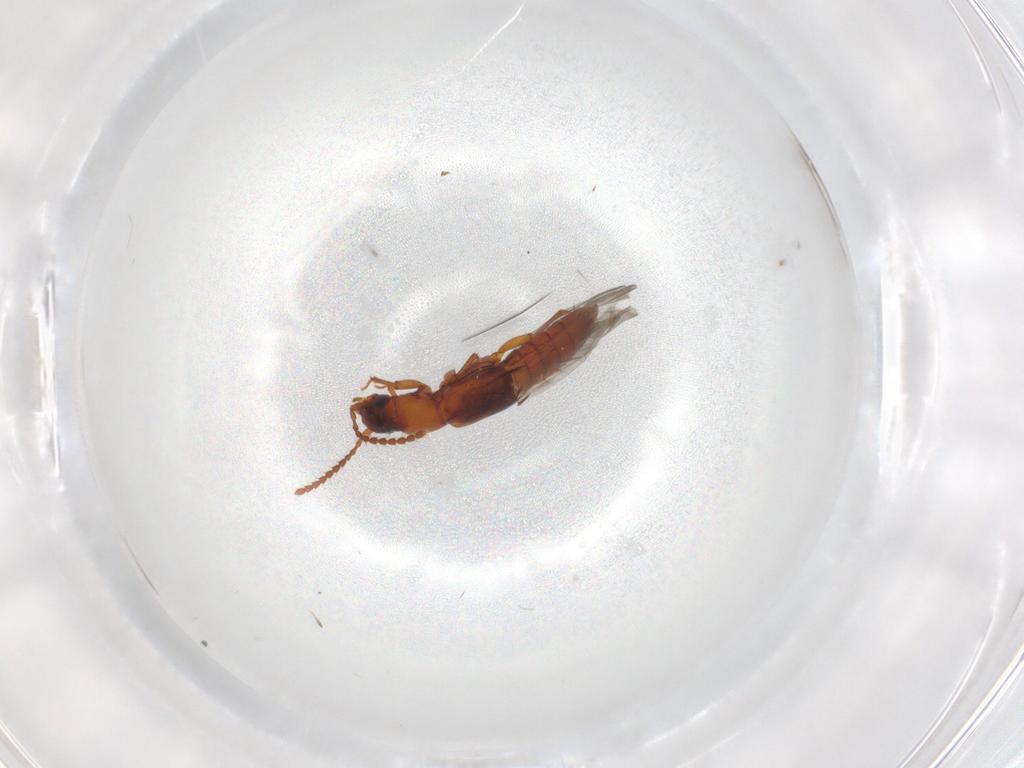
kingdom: Animalia
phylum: Arthropoda
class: Insecta
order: Coleoptera
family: Staphylinidae
